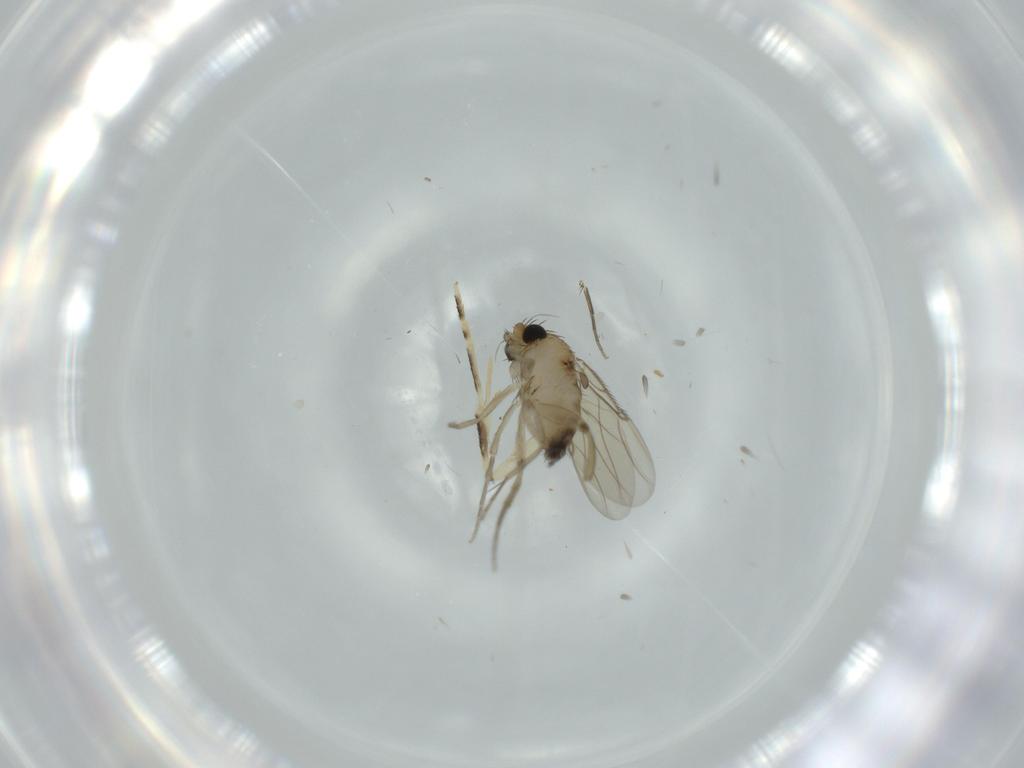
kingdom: Animalia
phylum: Arthropoda
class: Insecta
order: Diptera
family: Phoridae
